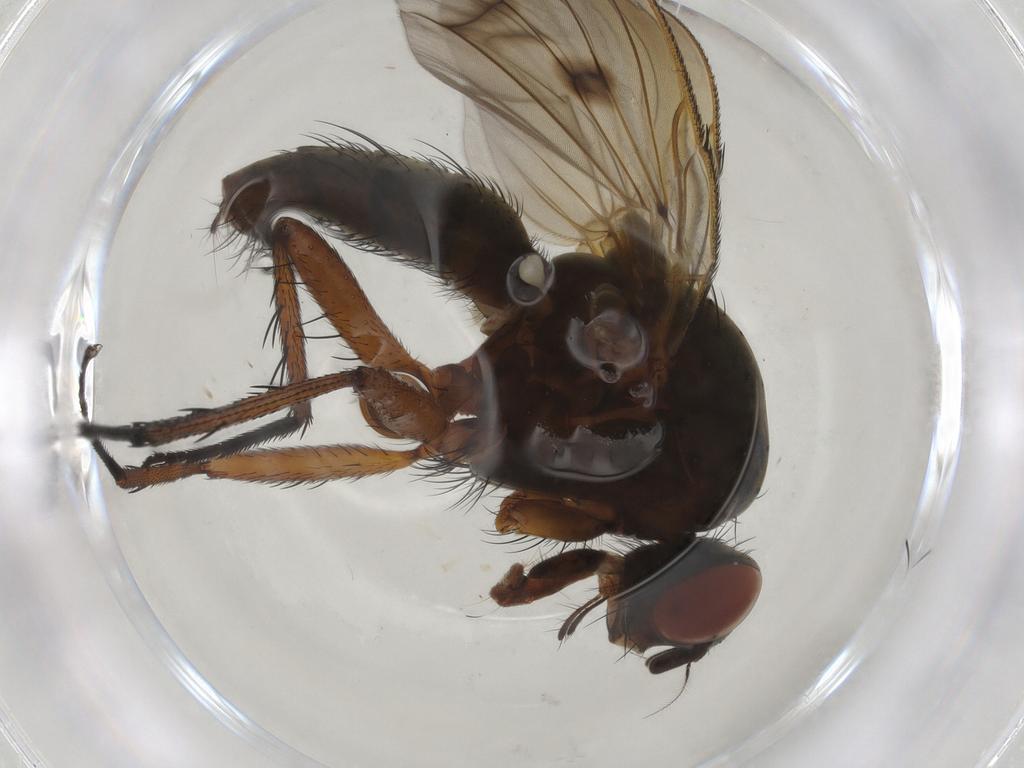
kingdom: Animalia
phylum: Arthropoda
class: Insecta
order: Diptera
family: Anthomyiidae
